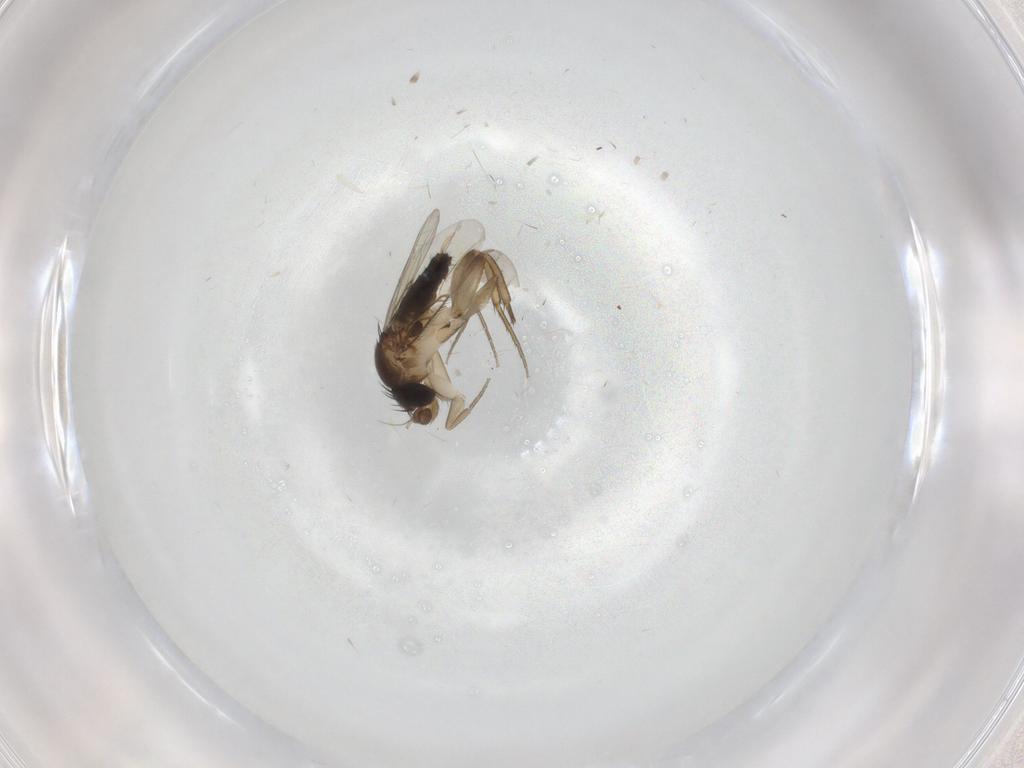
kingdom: Animalia
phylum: Arthropoda
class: Insecta
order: Diptera
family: Phoridae
